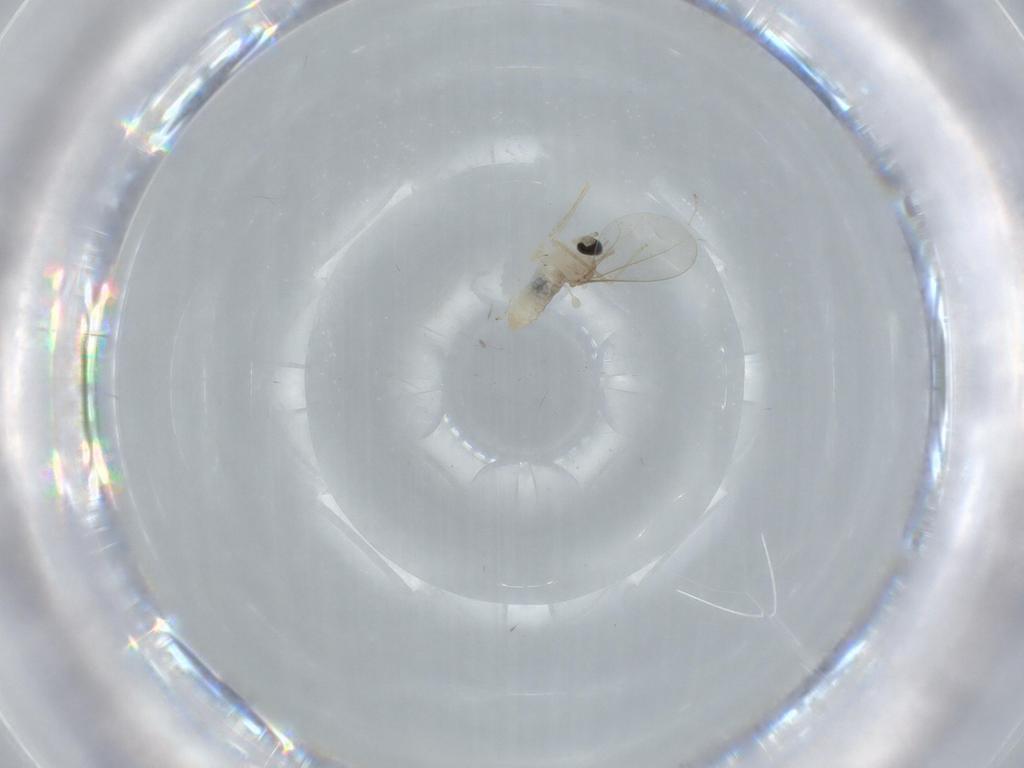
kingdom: Animalia
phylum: Arthropoda
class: Insecta
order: Diptera
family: Cecidomyiidae
